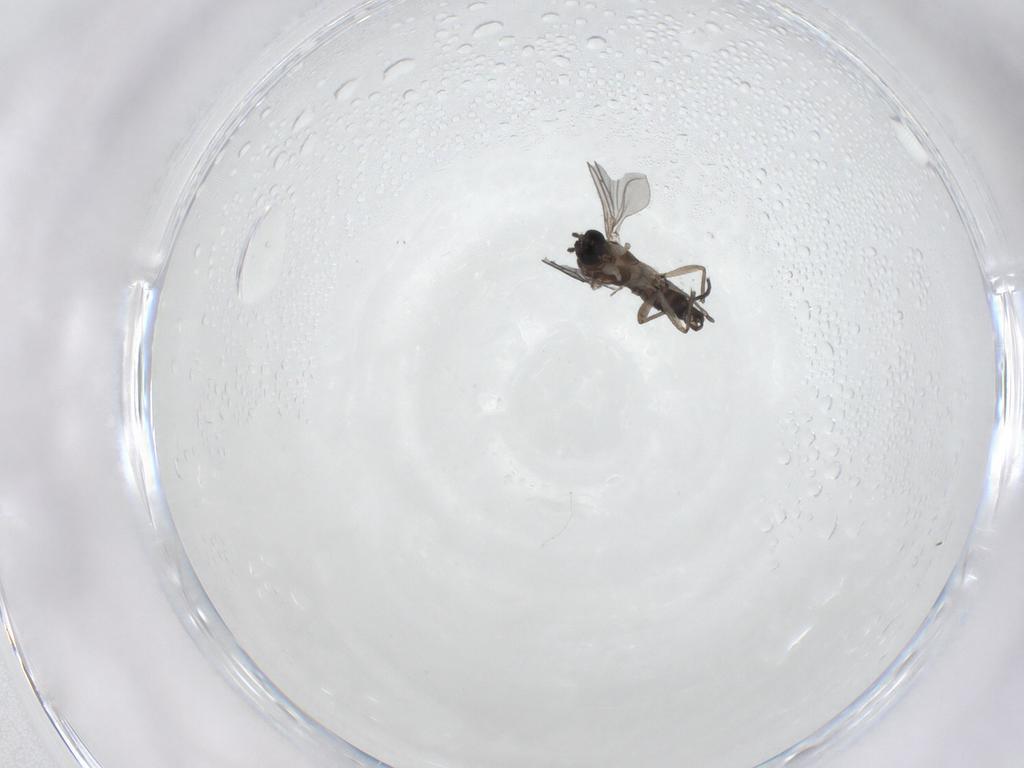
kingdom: Animalia
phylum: Arthropoda
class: Insecta
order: Diptera
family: Sciaridae
